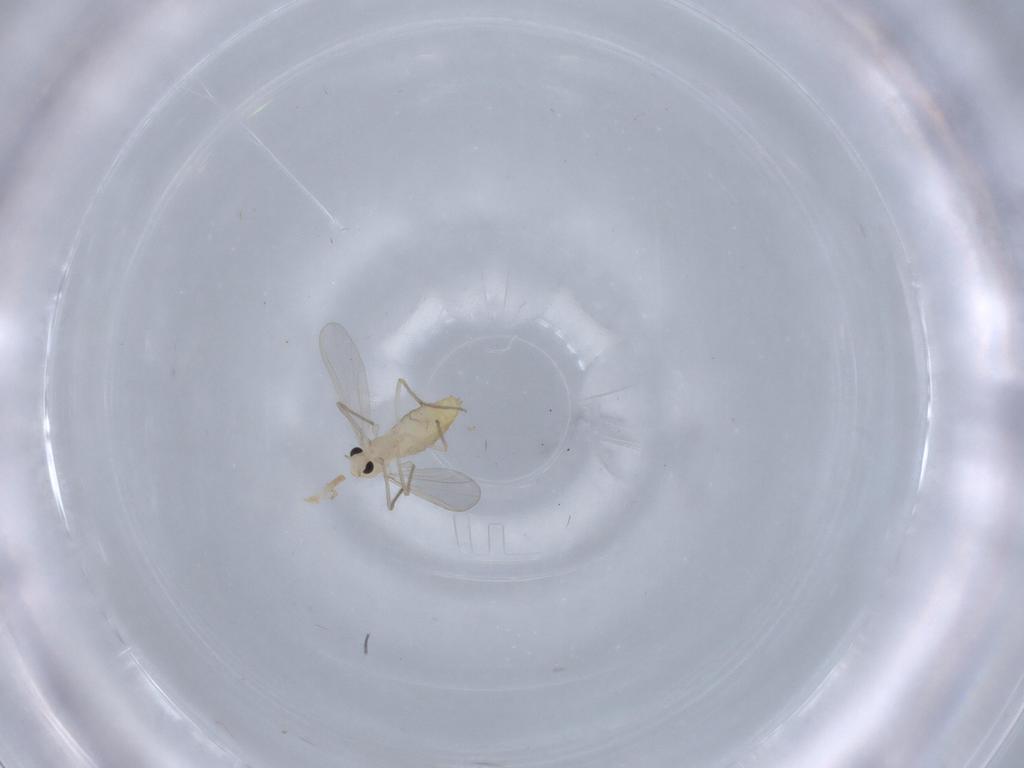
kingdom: Animalia
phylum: Arthropoda
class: Insecta
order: Diptera
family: Chironomidae
